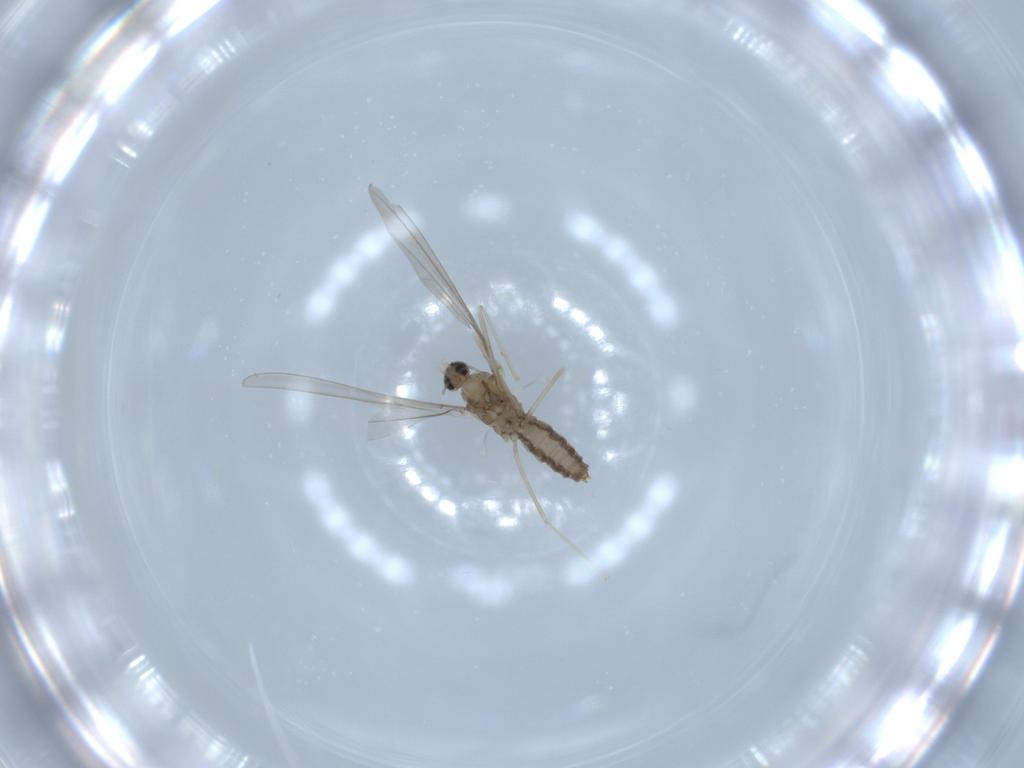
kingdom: Animalia
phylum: Arthropoda
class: Insecta
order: Diptera
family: Cecidomyiidae
